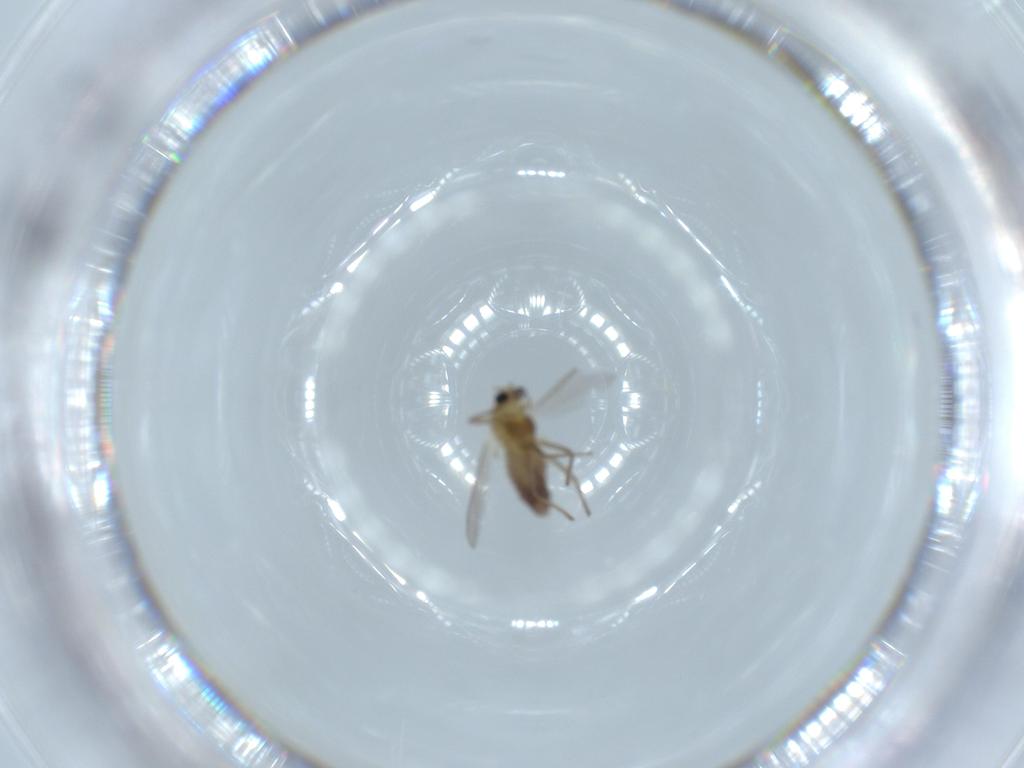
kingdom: Animalia
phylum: Arthropoda
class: Insecta
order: Diptera
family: Chironomidae
